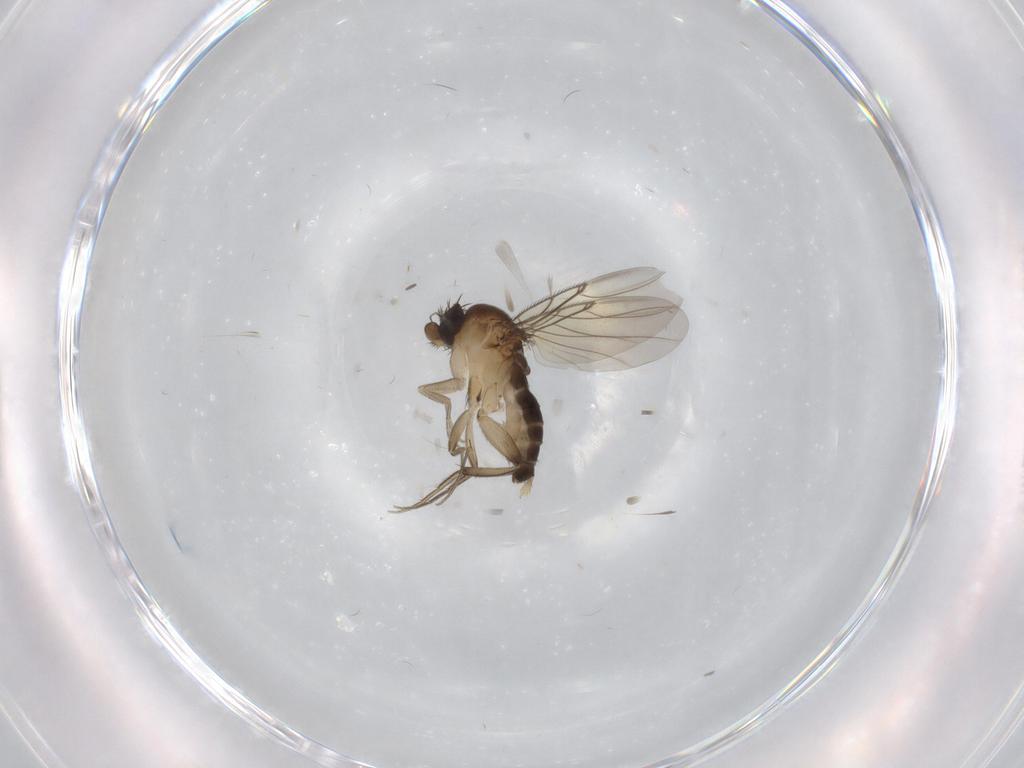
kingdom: Animalia
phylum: Arthropoda
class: Insecta
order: Diptera
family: Phoridae
